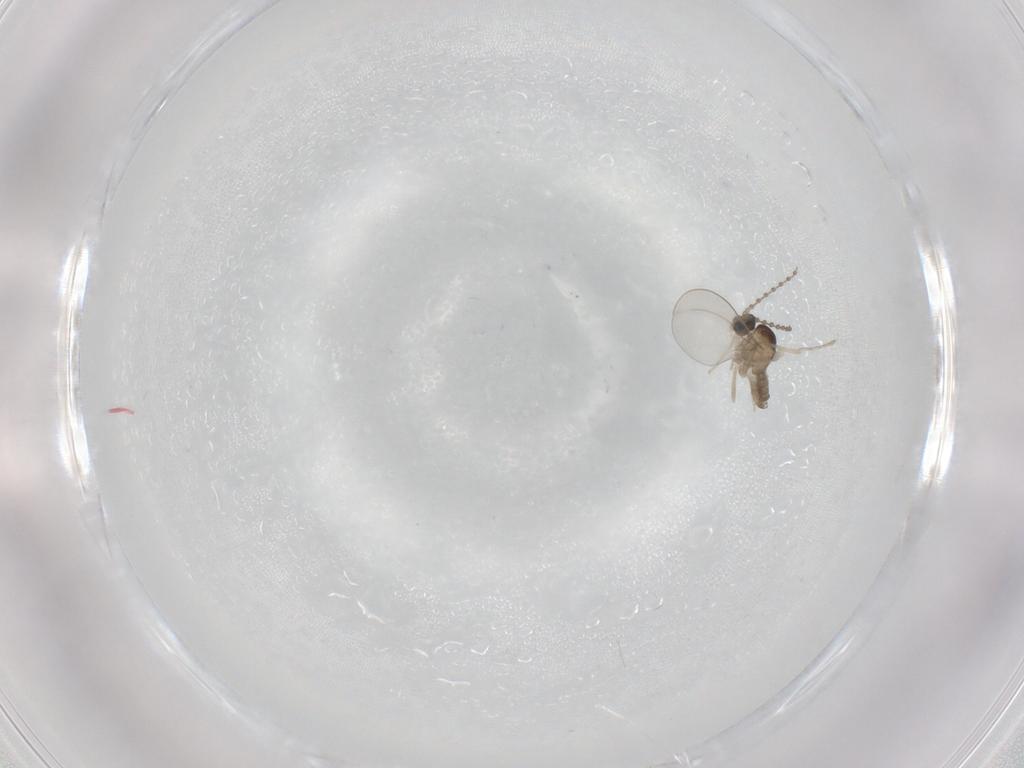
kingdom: Animalia
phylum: Arthropoda
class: Insecta
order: Diptera
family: Cecidomyiidae
